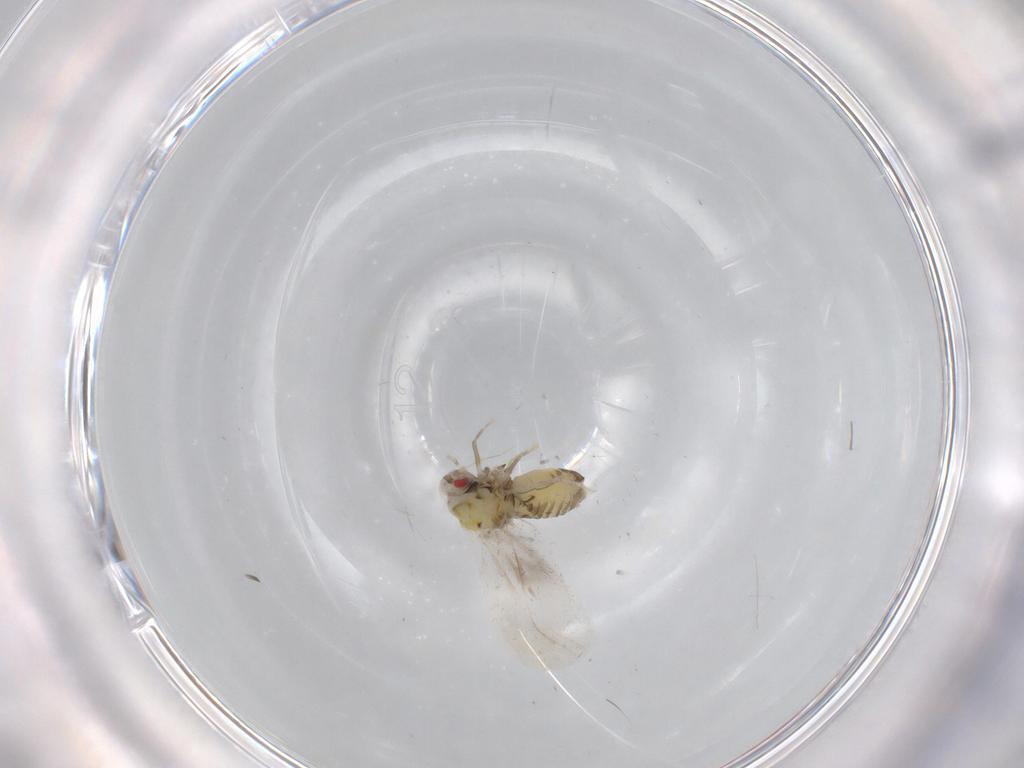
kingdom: Animalia
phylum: Arthropoda
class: Insecta
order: Hemiptera
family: Aleyrodidae
